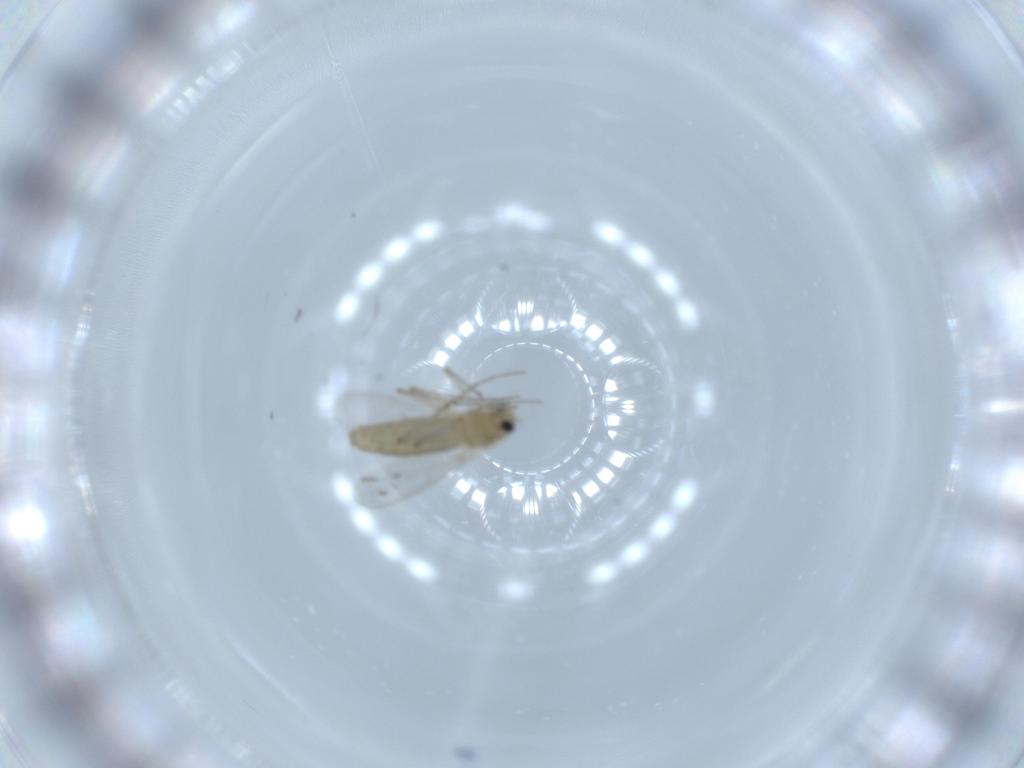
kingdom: Animalia
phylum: Arthropoda
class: Insecta
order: Diptera
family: Chironomidae
